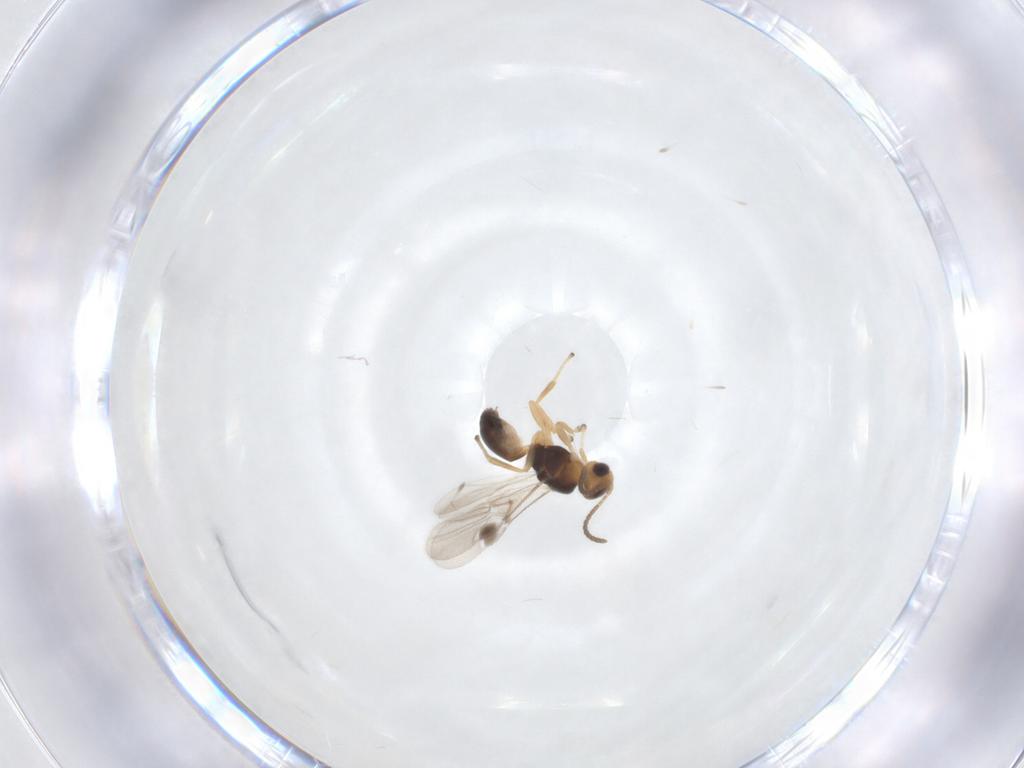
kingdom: Animalia
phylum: Arthropoda
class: Insecta
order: Hymenoptera
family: Braconidae
